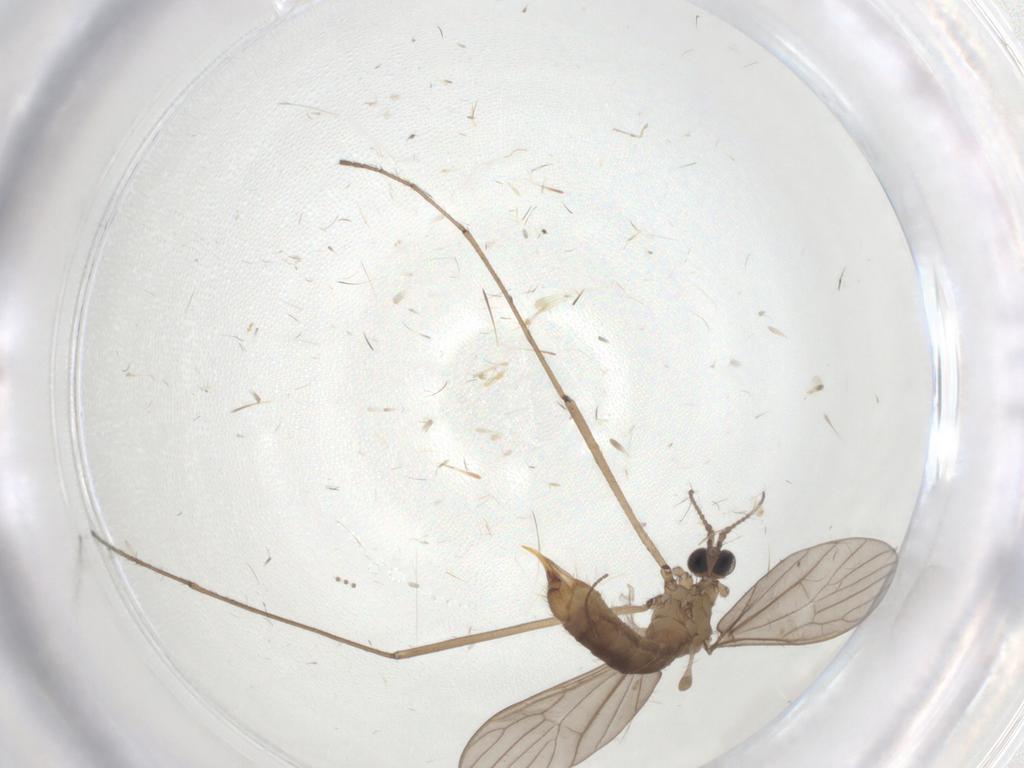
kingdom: Animalia
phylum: Arthropoda
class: Insecta
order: Diptera
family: Limoniidae
